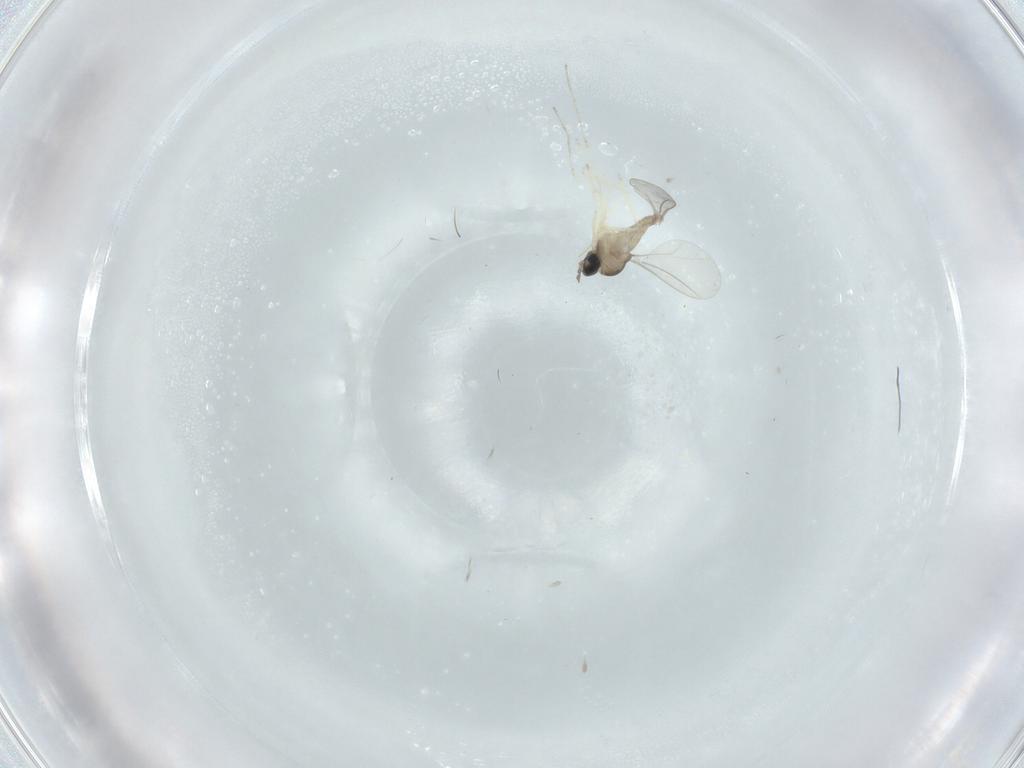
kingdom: Animalia
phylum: Arthropoda
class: Insecta
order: Diptera
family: Cecidomyiidae
